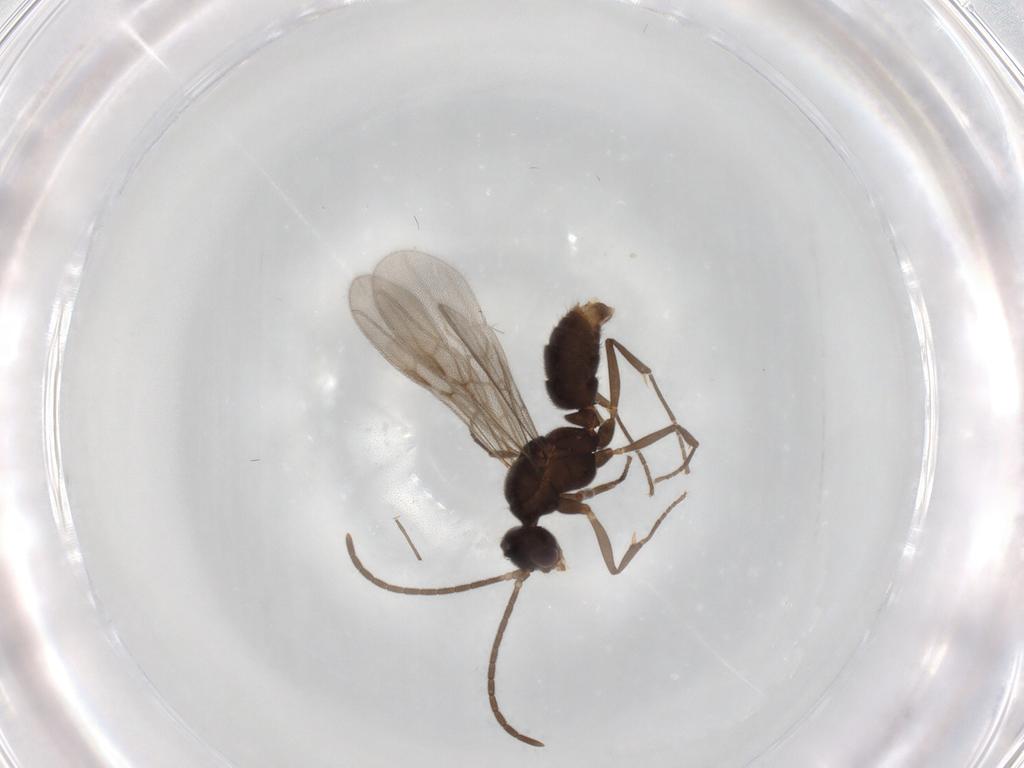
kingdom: Animalia
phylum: Arthropoda
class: Insecta
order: Hymenoptera
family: Formicidae
